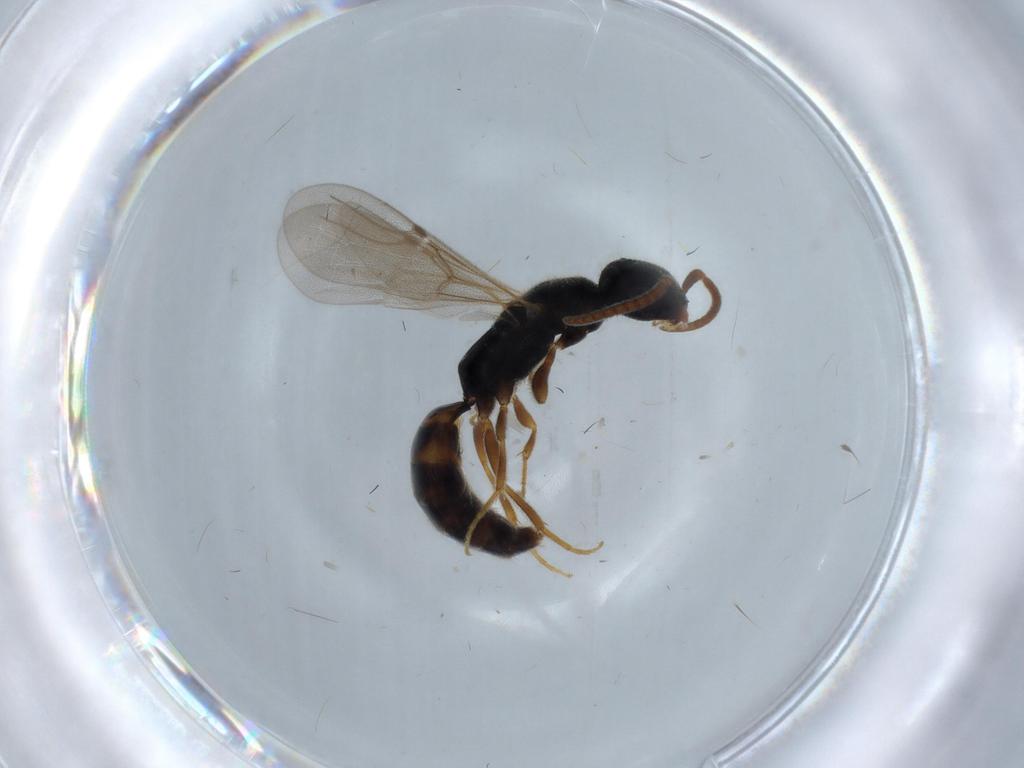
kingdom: Animalia
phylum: Arthropoda
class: Insecta
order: Hymenoptera
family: Bethylidae
